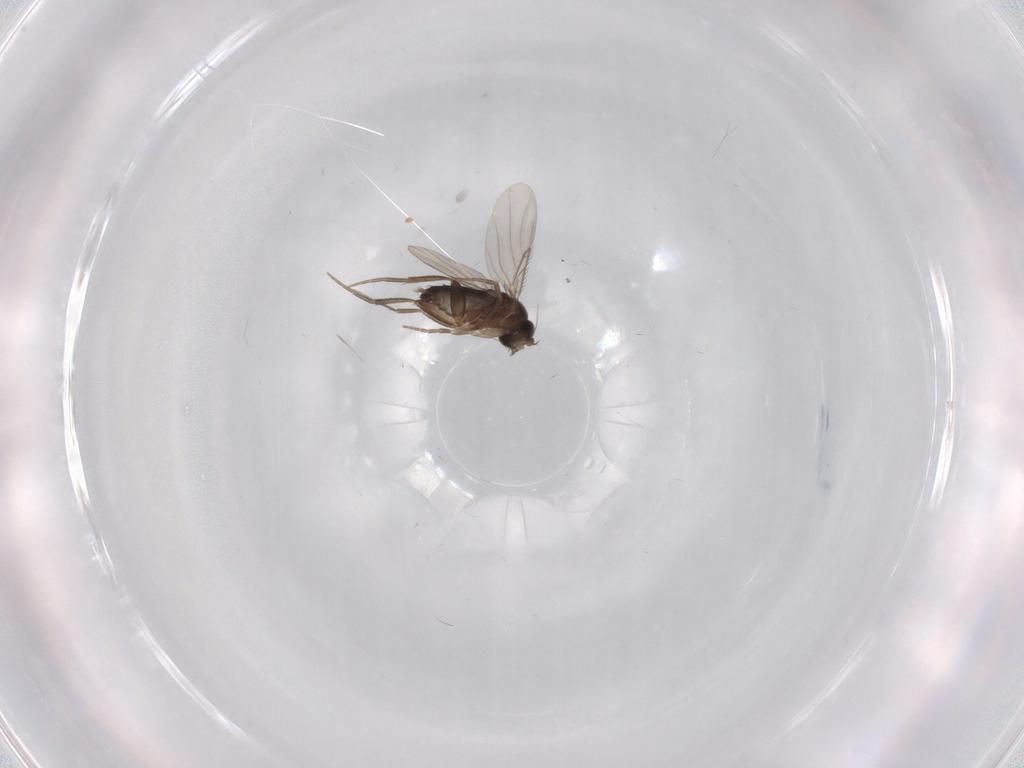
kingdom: Animalia
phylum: Arthropoda
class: Insecta
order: Diptera
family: Phoridae
